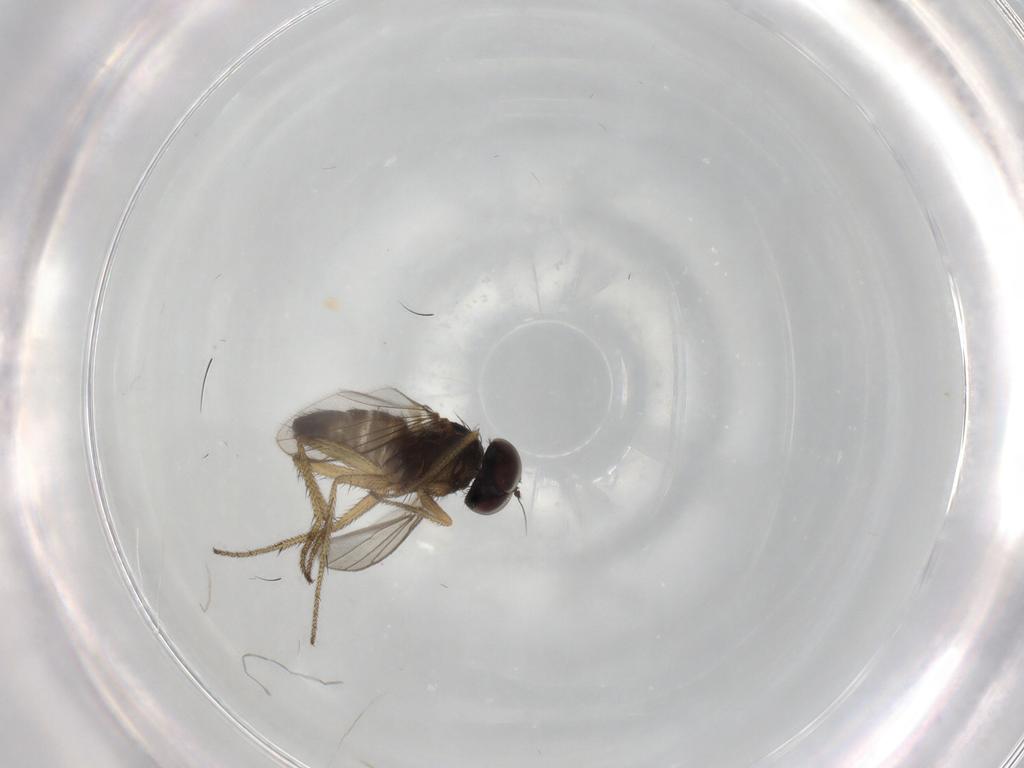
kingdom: Animalia
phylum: Arthropoda
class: Insecta
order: Diptera
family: Dolichopodidae
